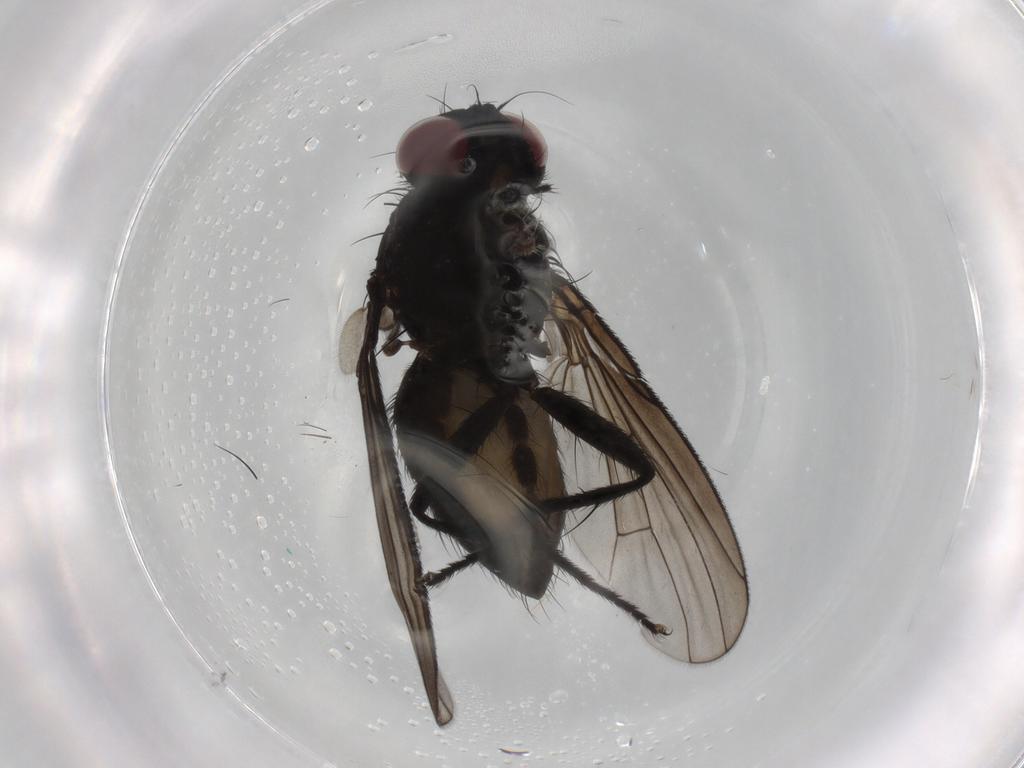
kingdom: Animalia
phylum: Arthropoda
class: Insecta
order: Diptera
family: Muscidae
